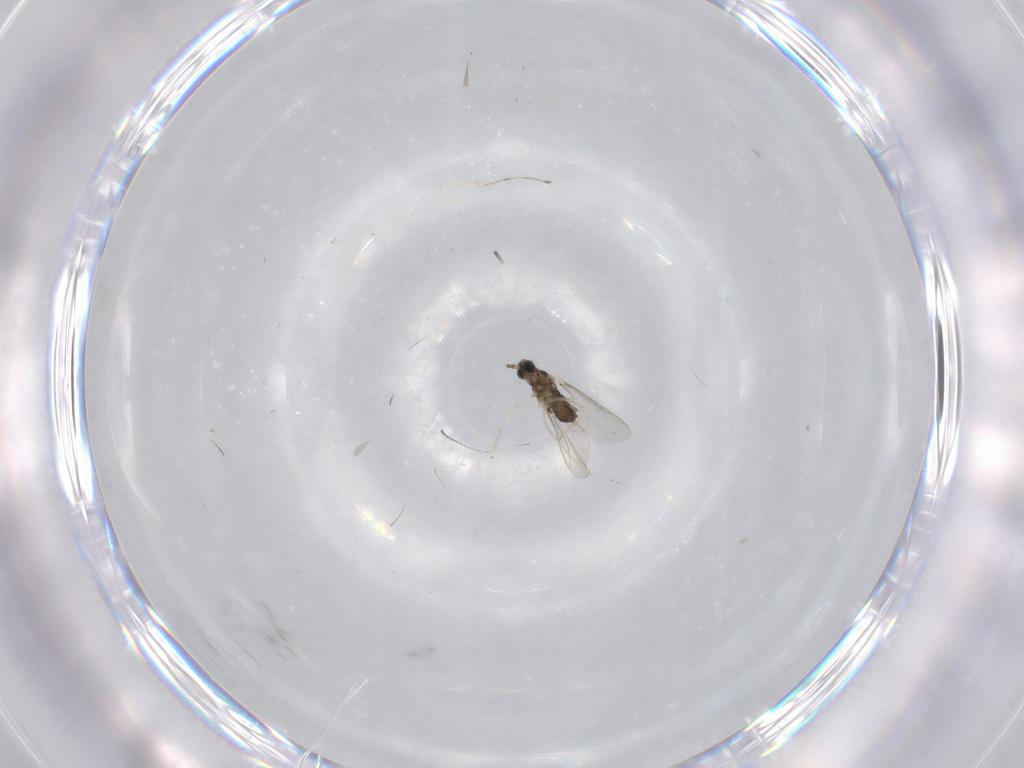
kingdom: Animalia
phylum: Arthropoda
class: Insecta
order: Diptera
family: Cecidomyiidae
